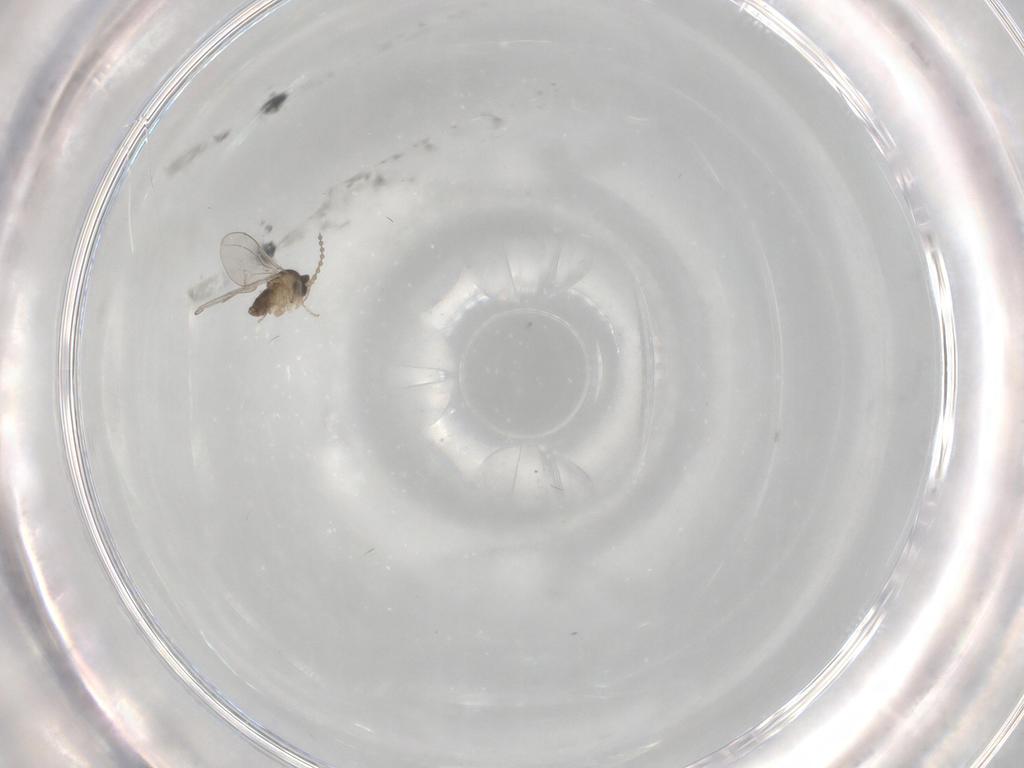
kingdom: Animalia
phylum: Arthropoda
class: Insecta
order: Diptera
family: Cecidomyiidae
